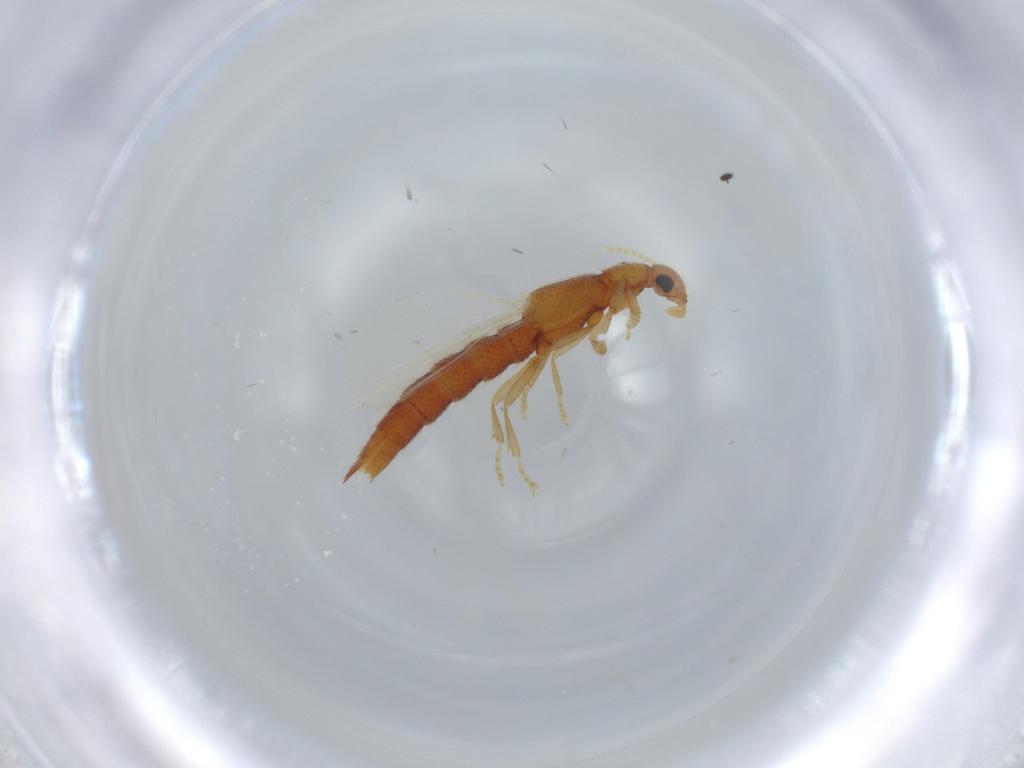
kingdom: Animalia
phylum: Arthropoda
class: Insecta
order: Coleoptera
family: Staphylinidae
